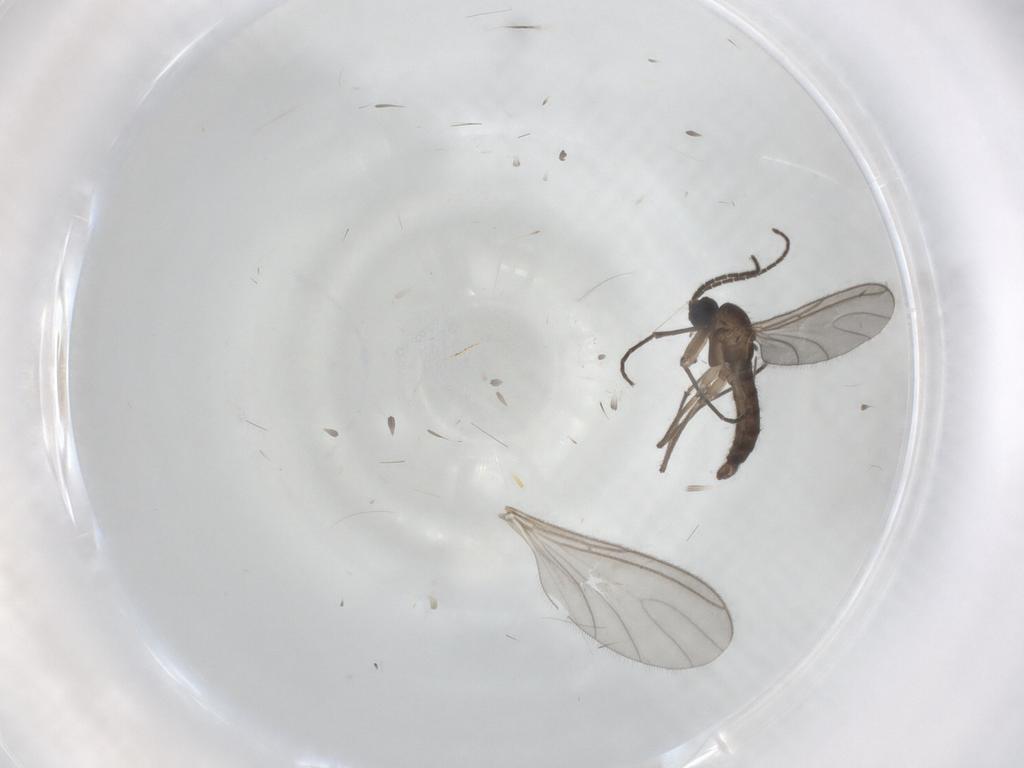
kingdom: Animalia
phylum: Arthropoda
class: Insecta
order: Diptera
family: Sciaridae
